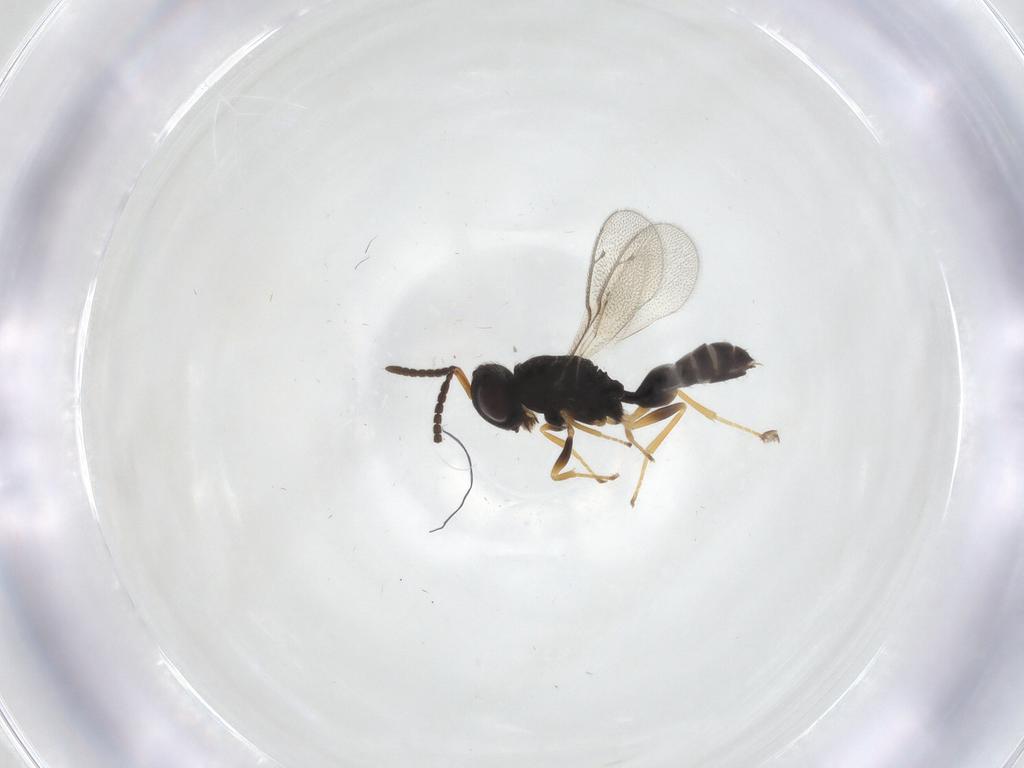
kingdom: Animalia
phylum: Arthropoda
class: Insecta
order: Hymenoptera
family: Pteromalidae
